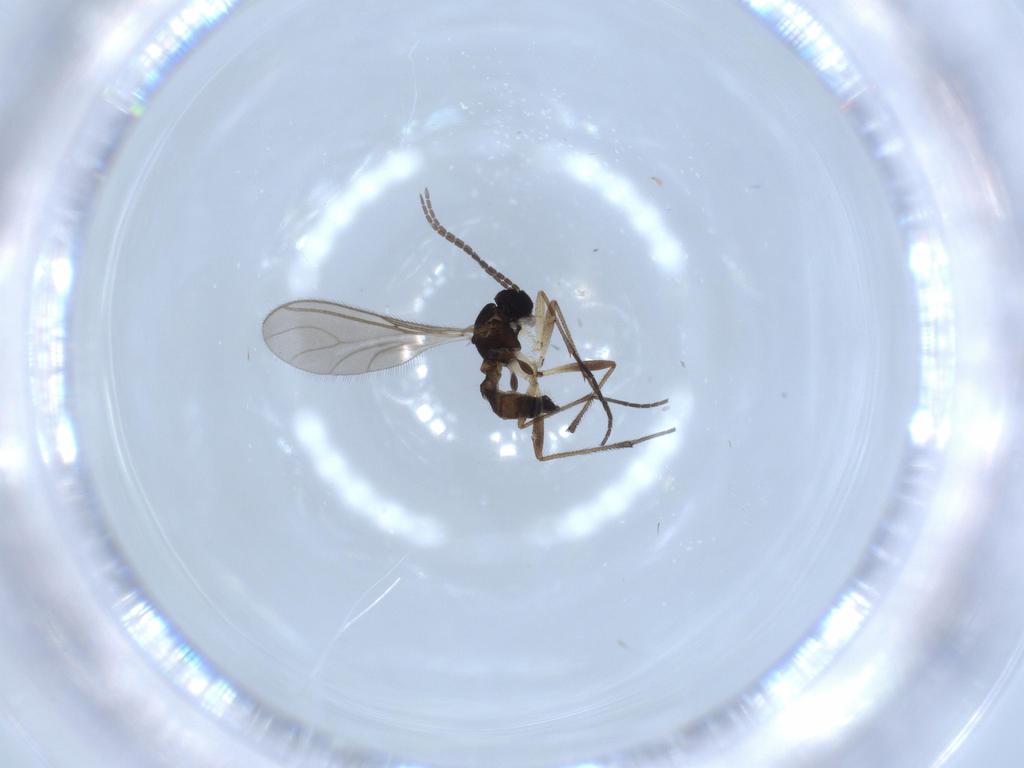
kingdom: Animalia
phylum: Arthropoda
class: Insecta
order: Diptera
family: Sciaridae
